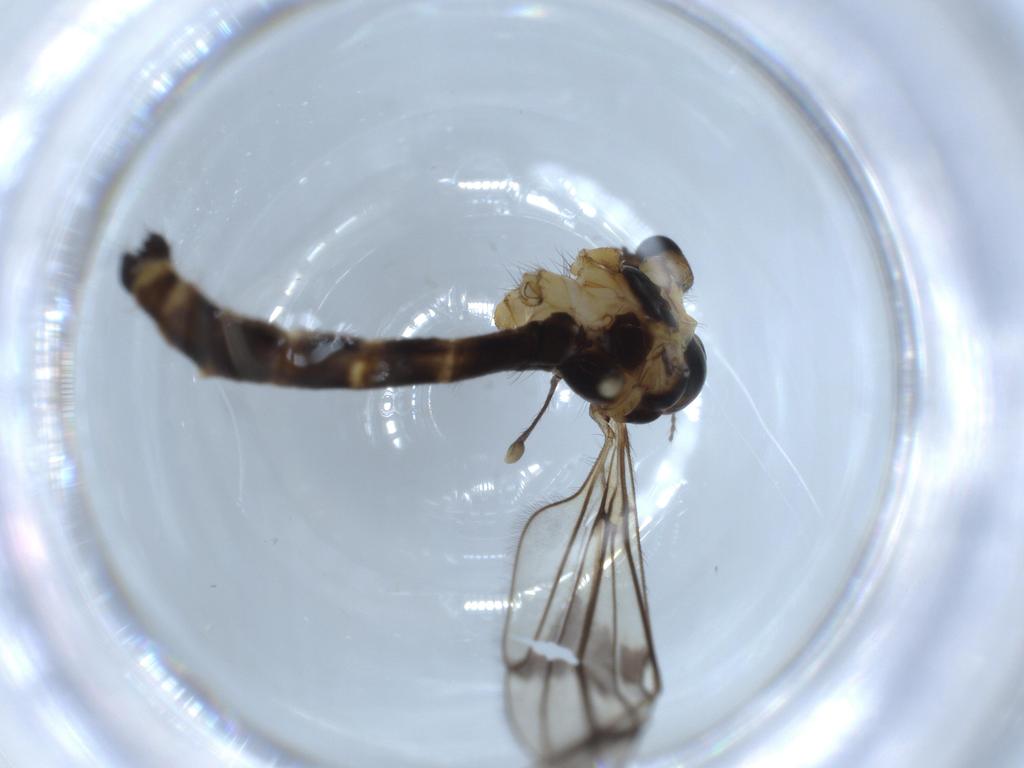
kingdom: Animalia
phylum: Arthropoda
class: Insecta
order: Diptera
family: Limoniidae
